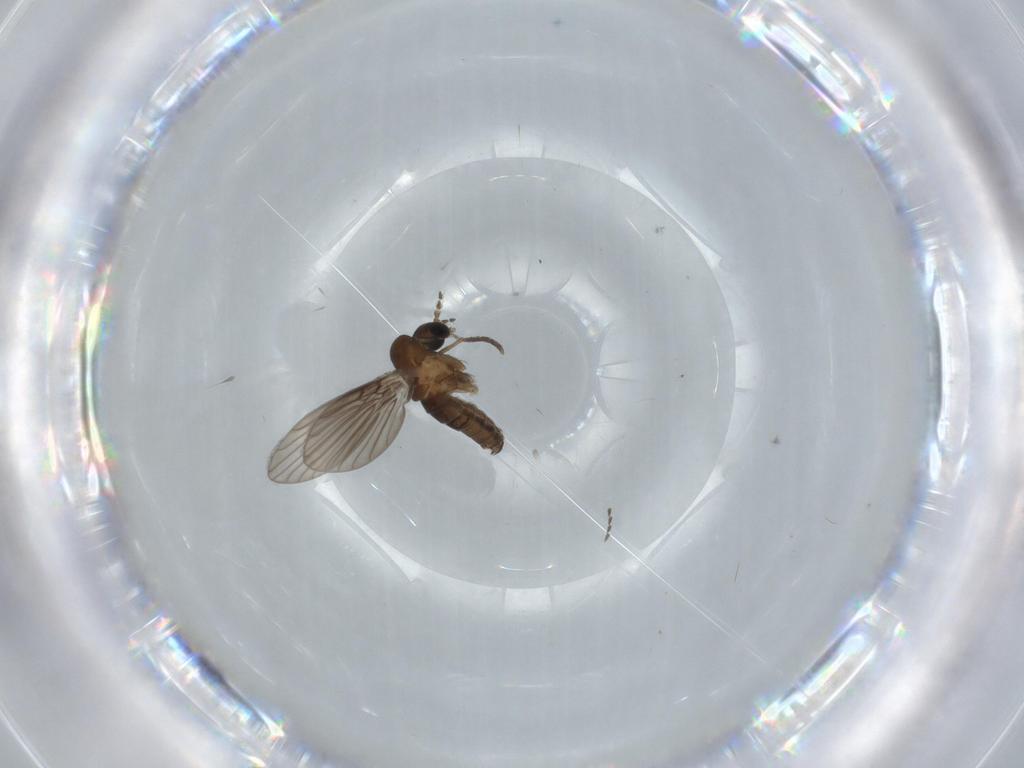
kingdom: Animalia
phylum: Arthropoda
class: Insecta
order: Diptera
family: Psychodidae
